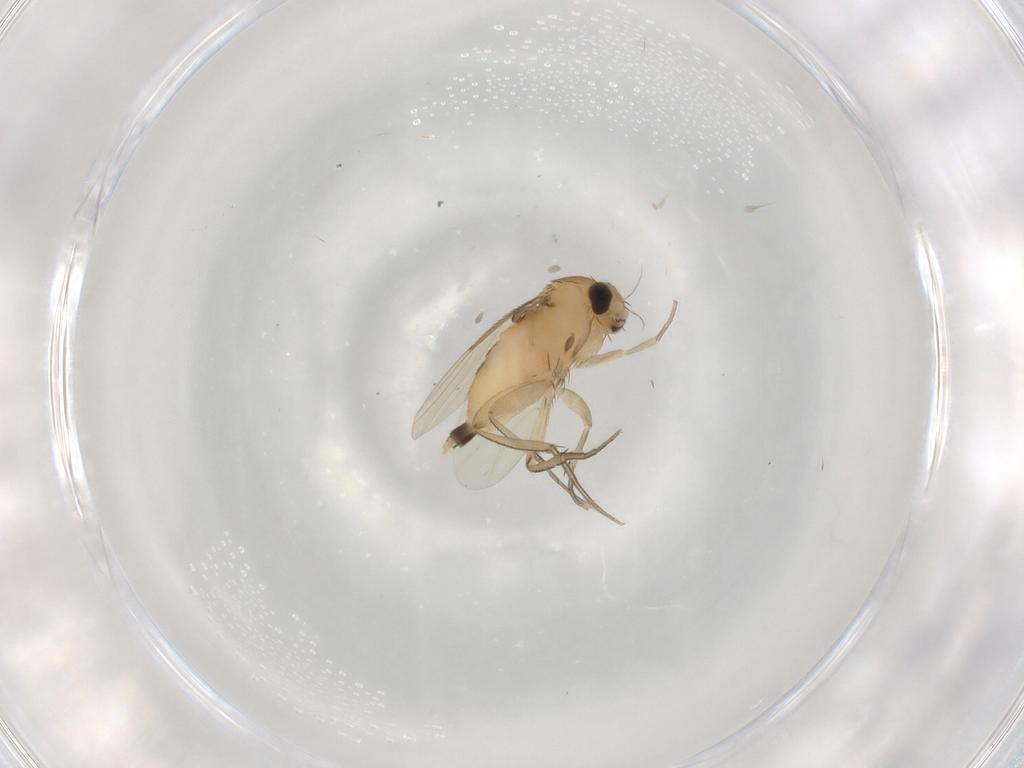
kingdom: Animalia
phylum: Arthropoda
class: Insecta
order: Diptera
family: Phoridae
